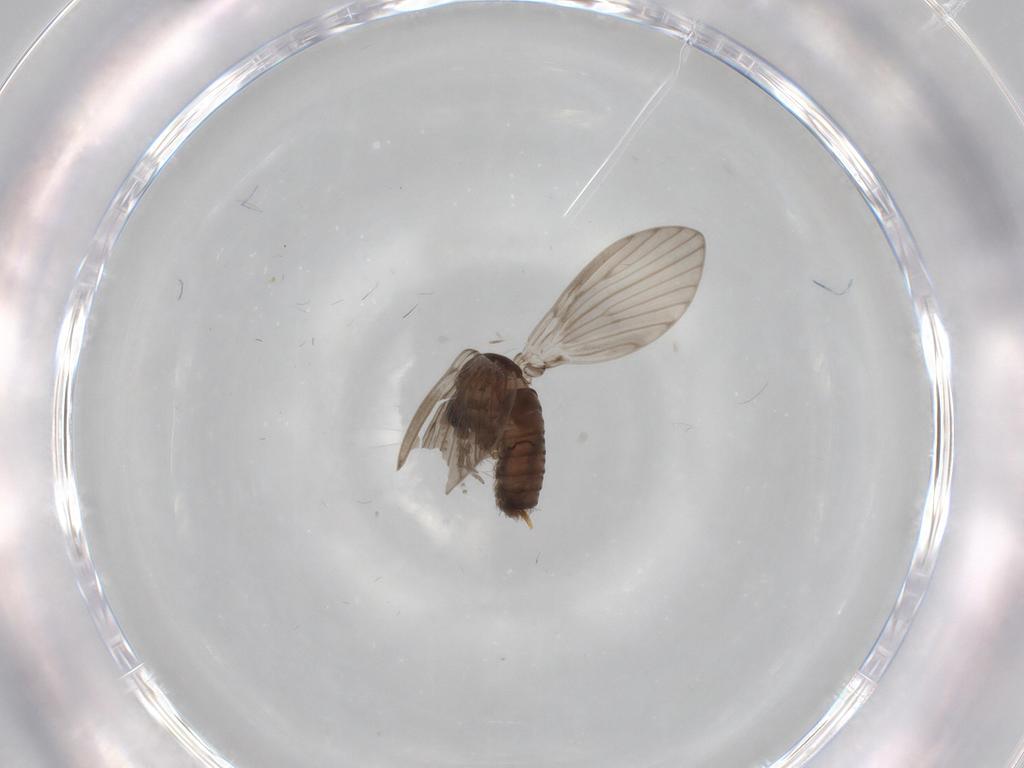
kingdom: Animalia
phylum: Arthropoda
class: Insecta
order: Diptera
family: Psychodidae
